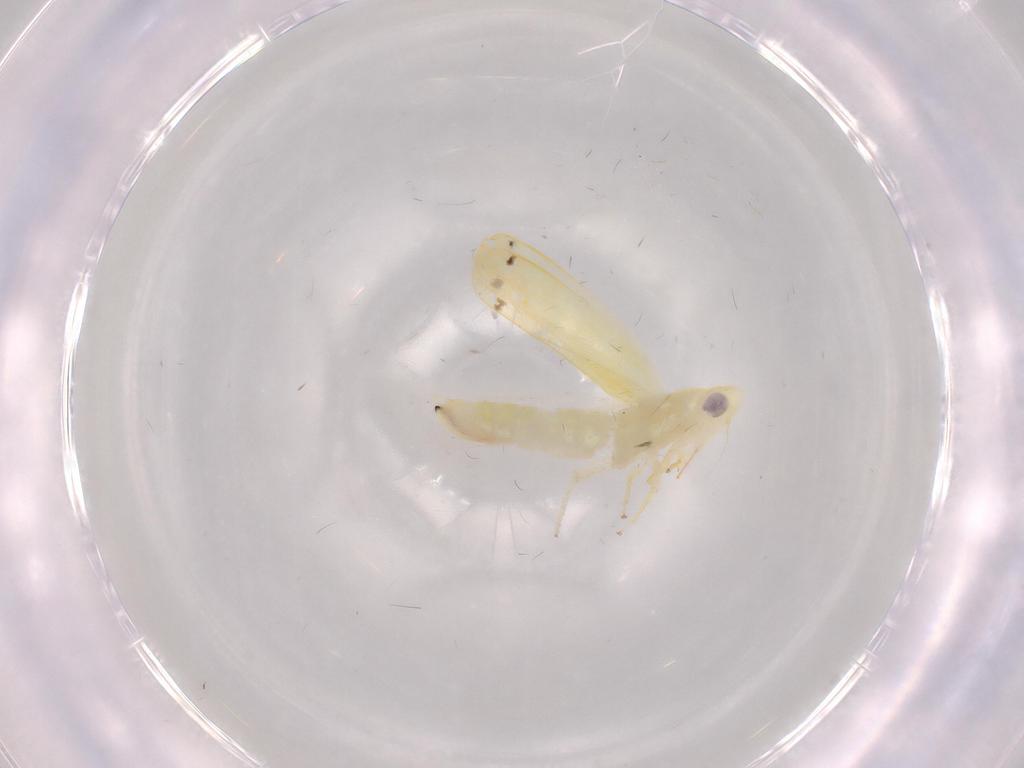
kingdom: Animalia
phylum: Arthropoda
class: Insecta
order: Hemiptera
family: Cicadellidae
